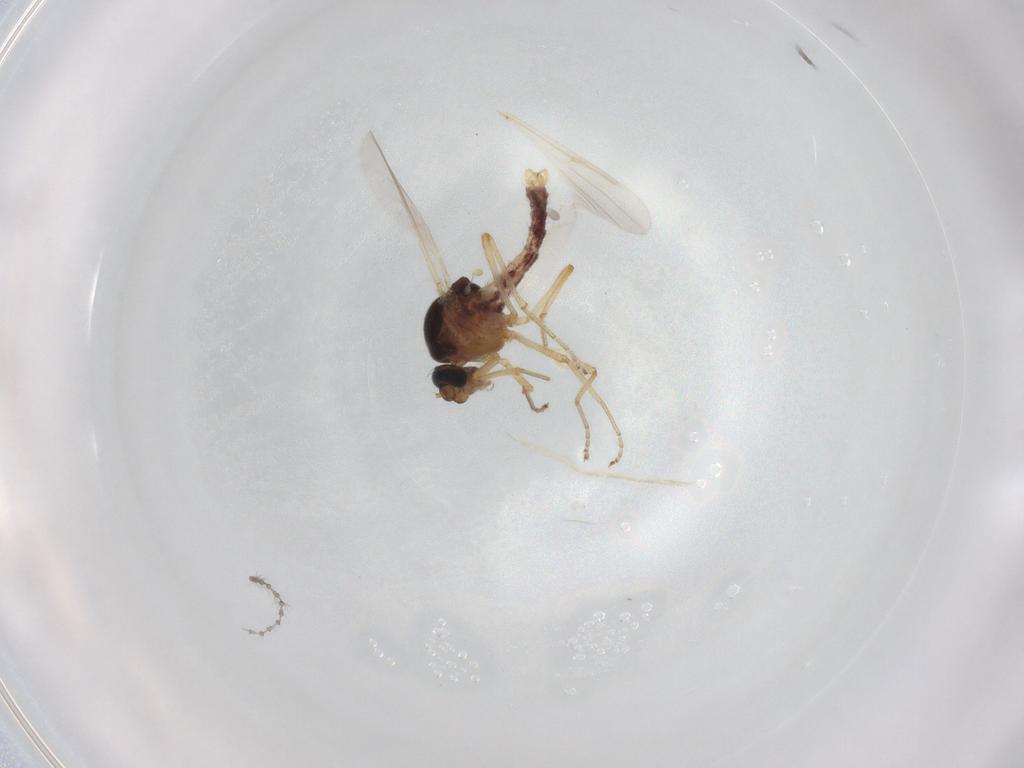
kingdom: Animalia
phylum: Arthropoda
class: Insecta
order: Diptera
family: Ceratopogonidae
